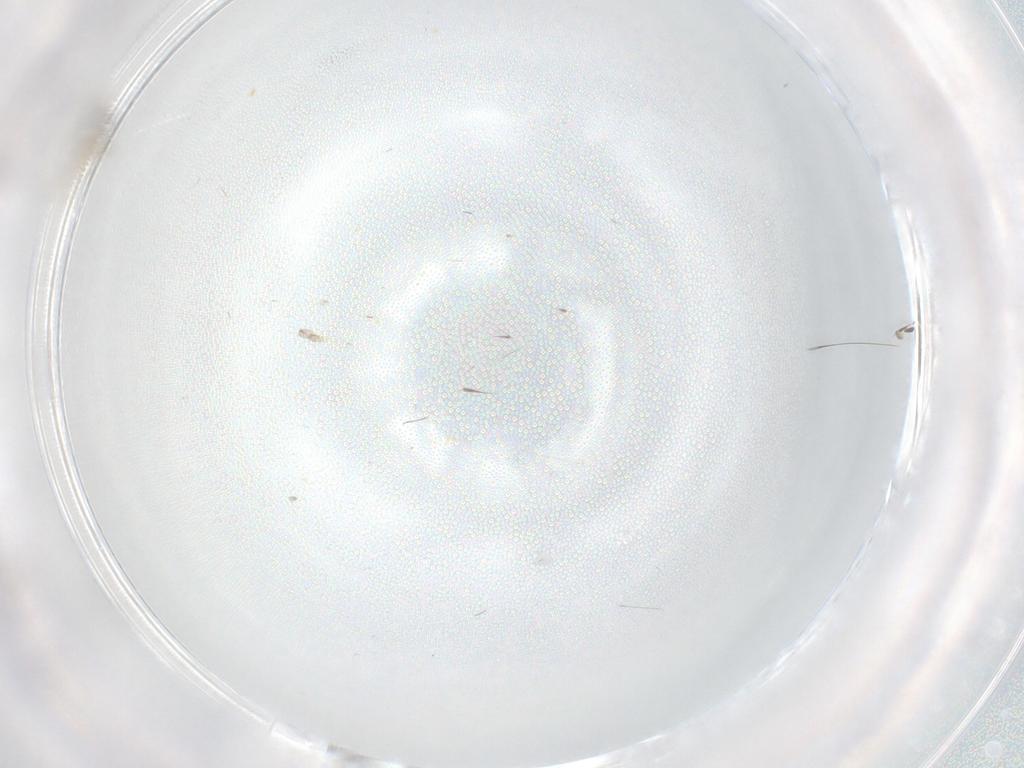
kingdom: Animalia
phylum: Arthropoda
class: Insecta
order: Diptera
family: Cecidomyiidae
